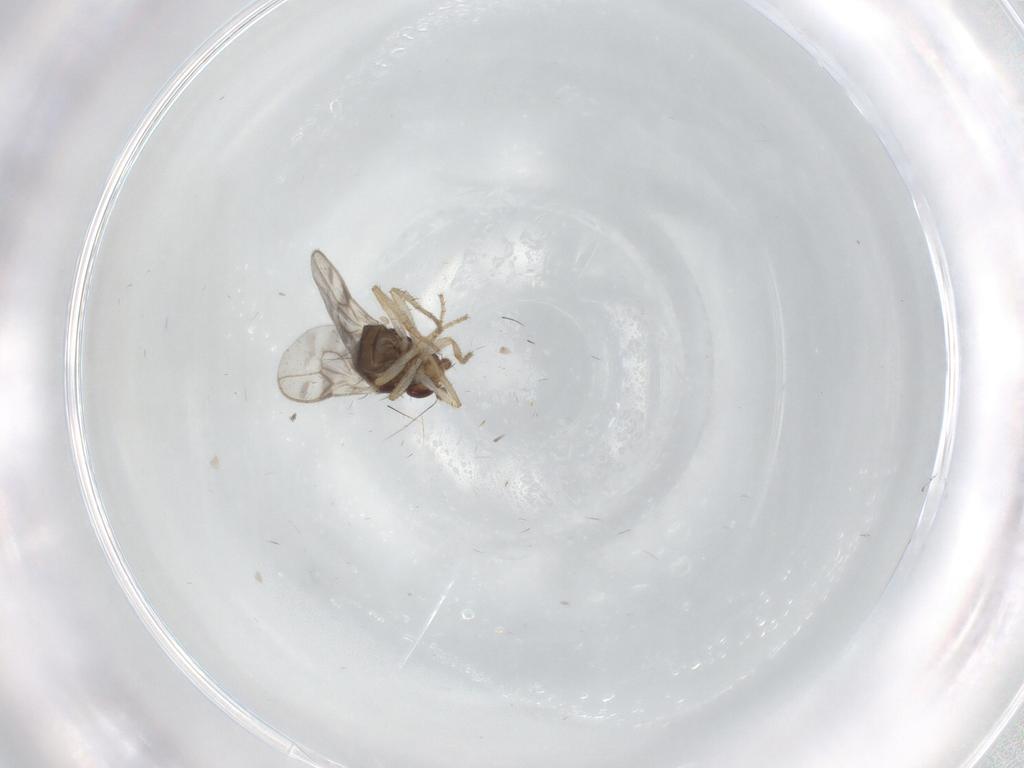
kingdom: Animalia
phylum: Arthropoda
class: Insecta
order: Diptera
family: Sphaeroceridae
